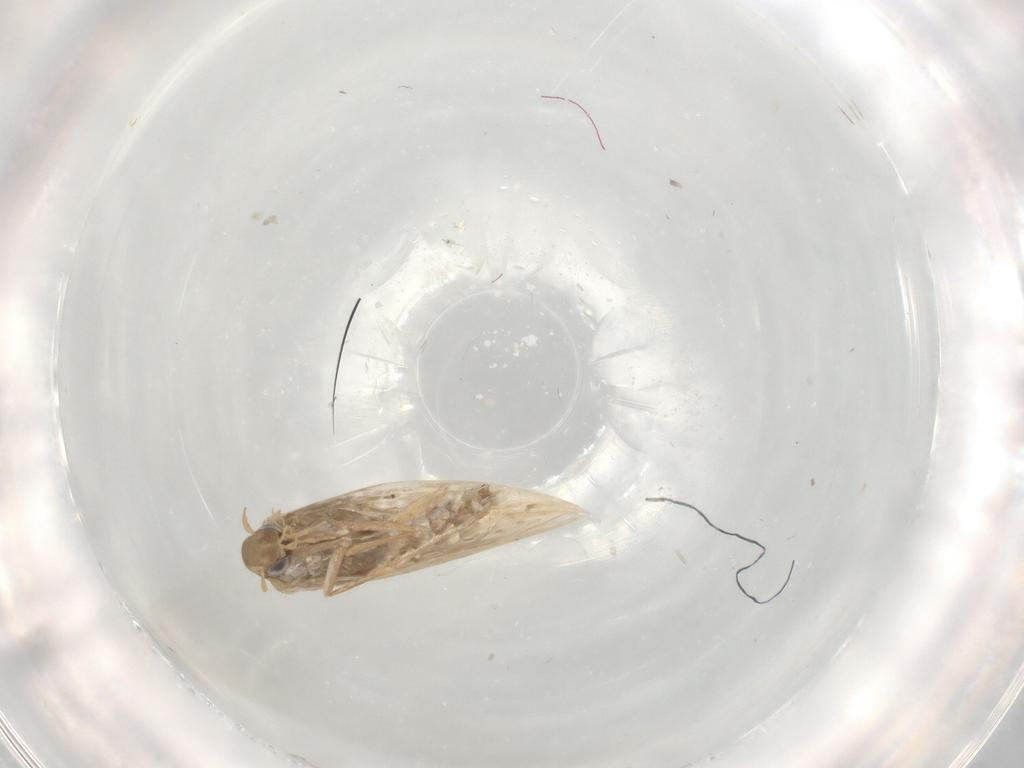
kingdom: Animalia
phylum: Arthropoda
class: Insecta
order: Lepidoptera
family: Gracillariidae
